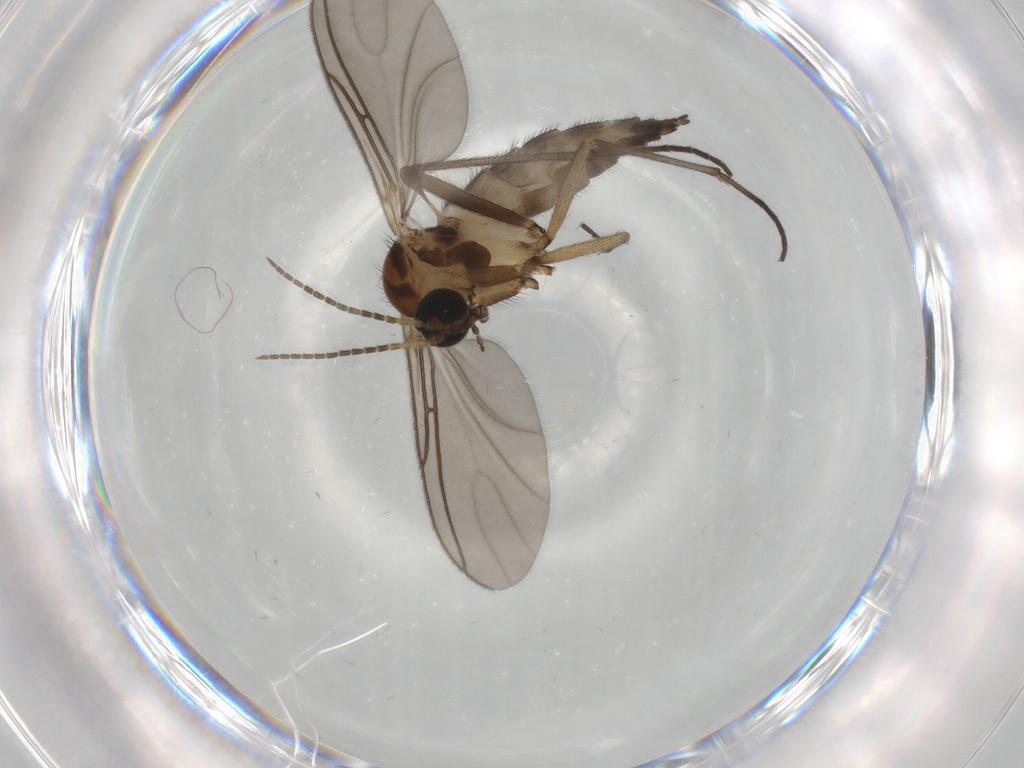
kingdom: Animalia
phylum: Arthropoda
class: Insecta
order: Diptera
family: Sciaridae
